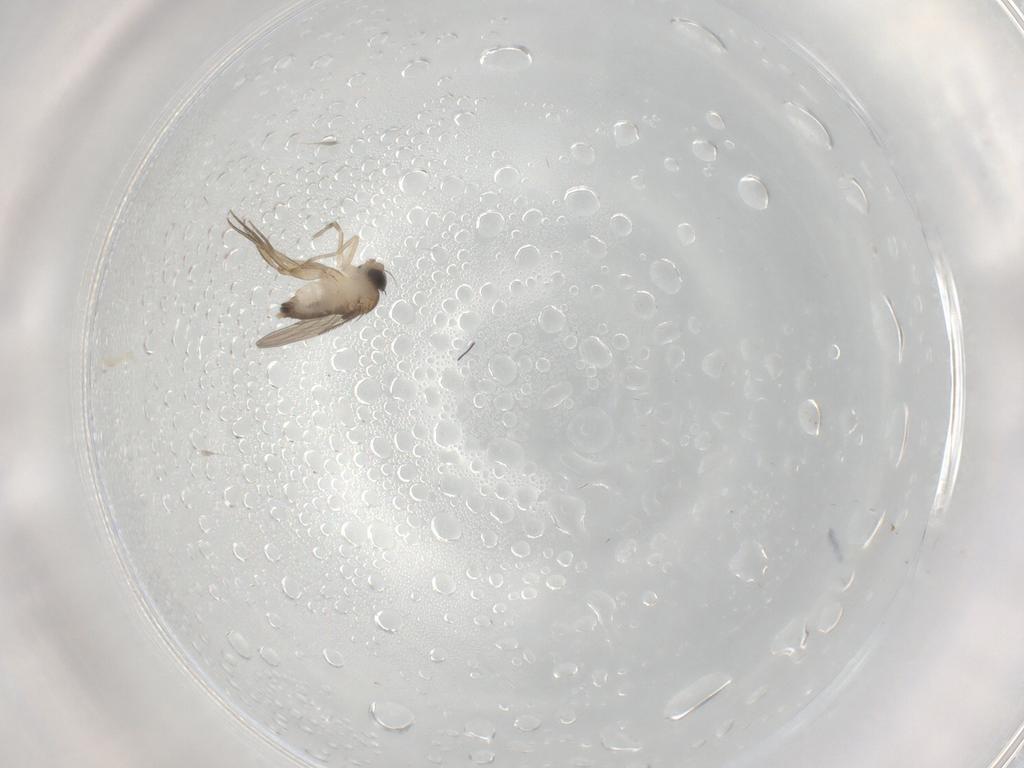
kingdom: Animalia
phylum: Arthropoda
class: Insecta
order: Diptera
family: Phoridae
